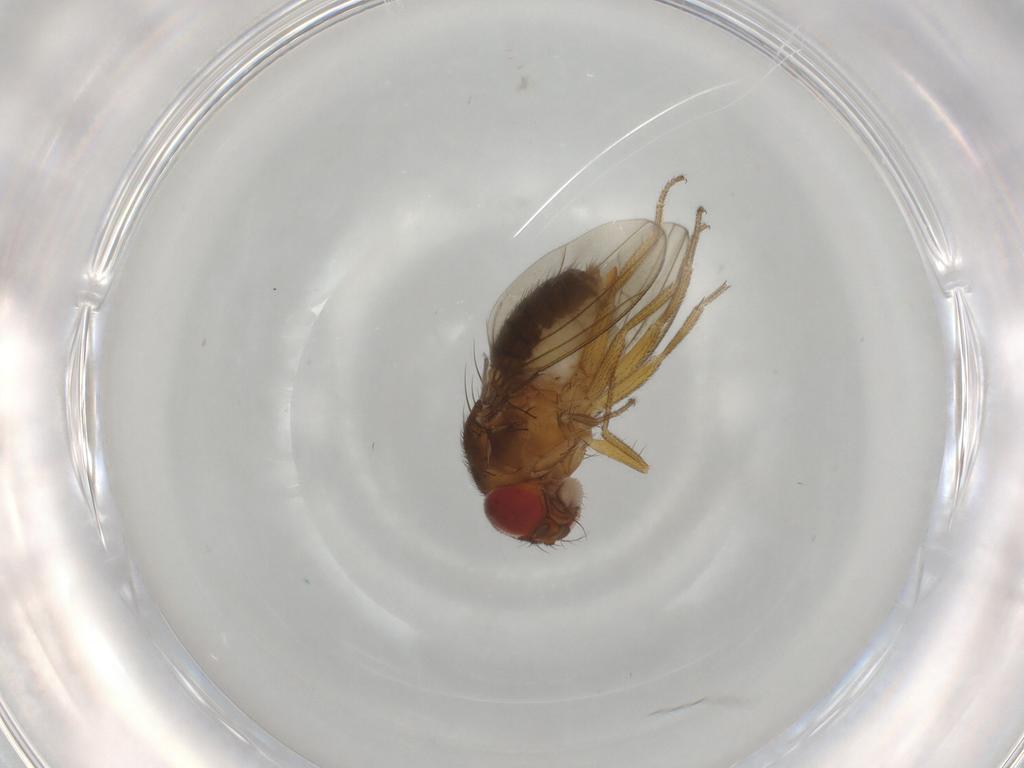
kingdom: Animalia
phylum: Arthropoda
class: Insecta
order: Diptera
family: Drosophilidae
